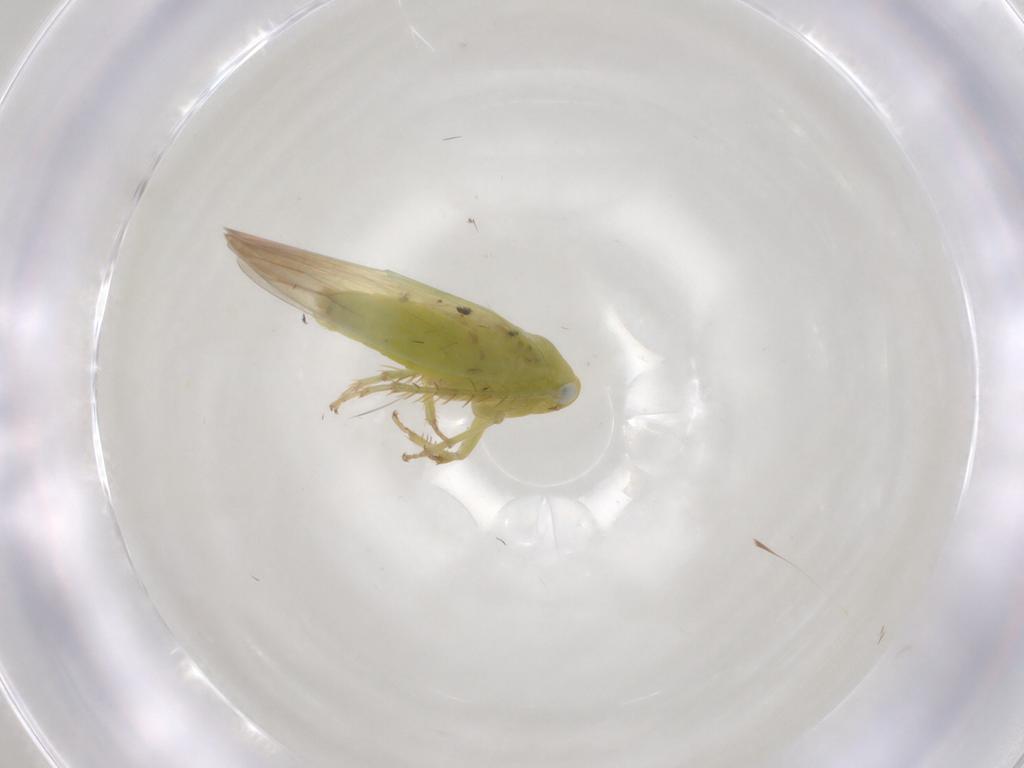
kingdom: Animalia
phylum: Arthropoda
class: Insecta
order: Hemiptera
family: Cicadellidae
